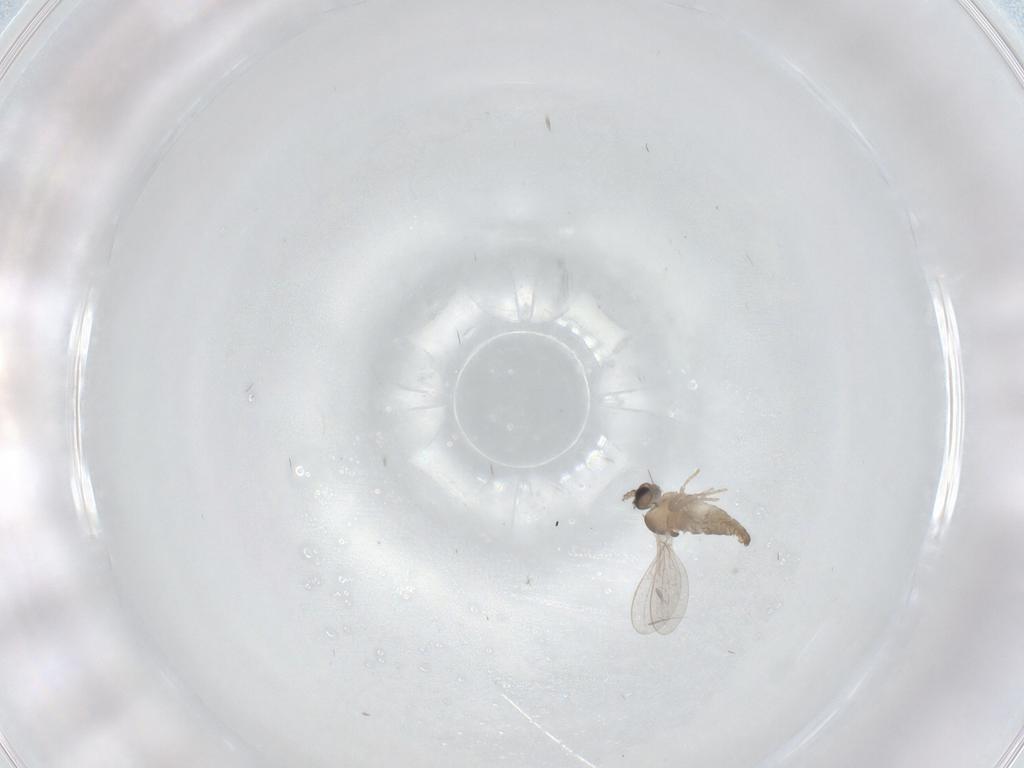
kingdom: Animalia
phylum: Arthropoda
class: Insecta
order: Diptera
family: Cecidomyiidae
